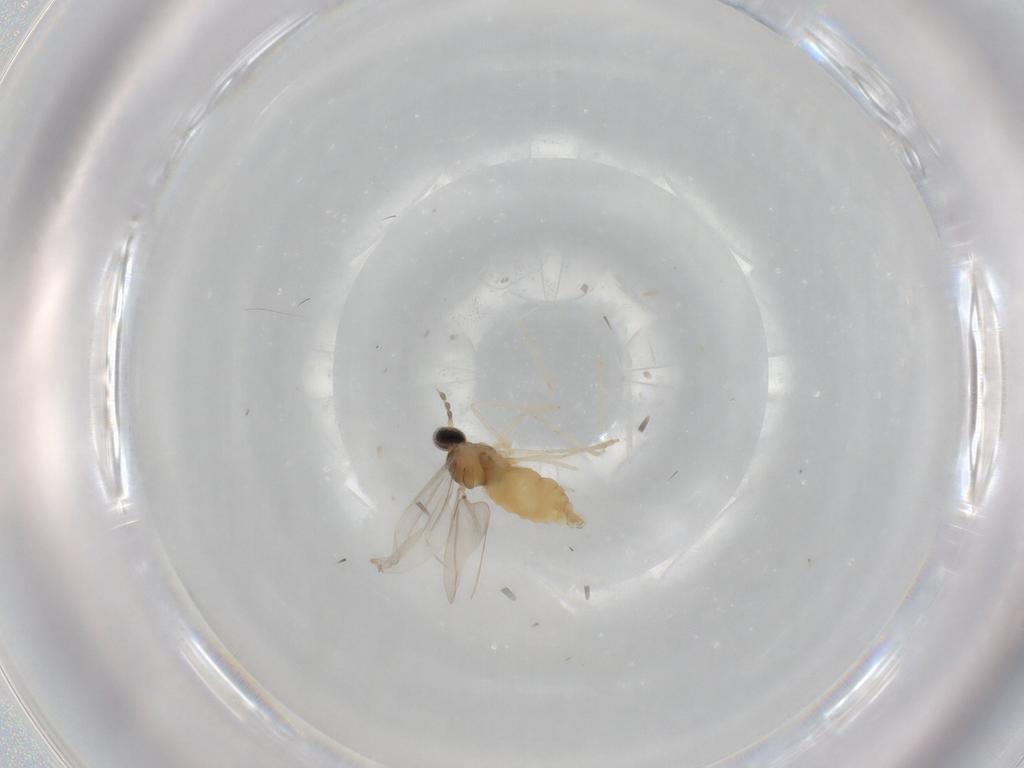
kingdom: Animalia
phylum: Arthropoda
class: Insecta
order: Diptera
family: Cecidomyiidae
